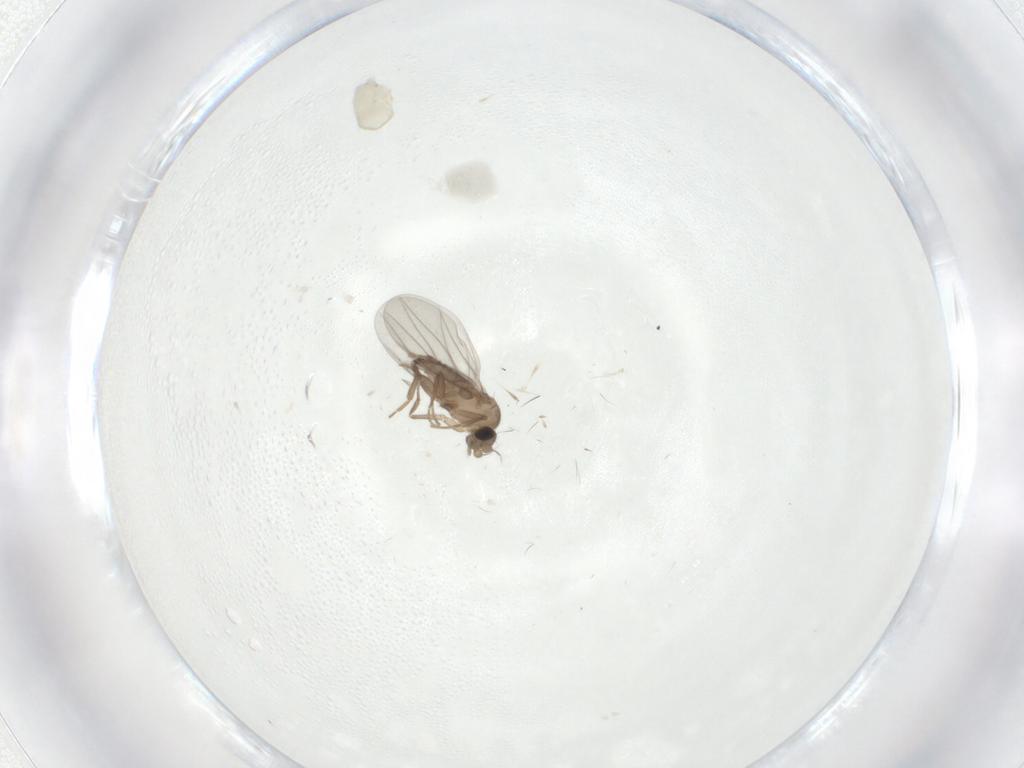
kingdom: Animalia
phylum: Arthropoda
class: Insecta
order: Diptera
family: Cecidomyiidae
